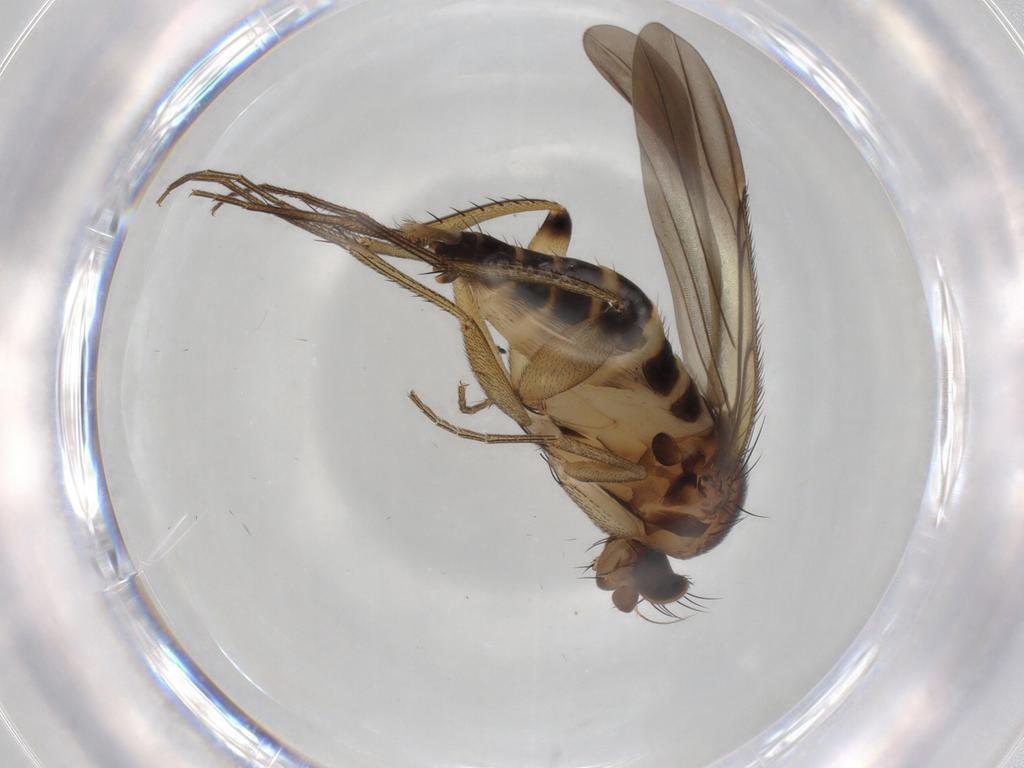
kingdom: Animalia
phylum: Arthropoda
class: Insecta
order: Diptera
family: Phoridae
